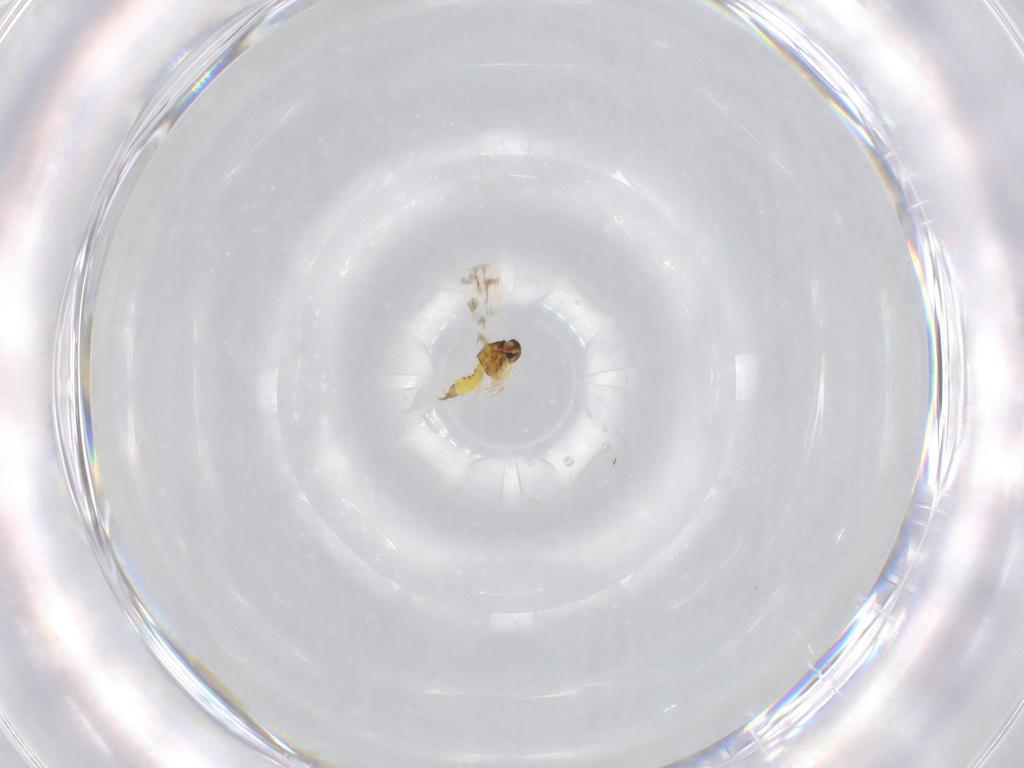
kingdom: Animalia
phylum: Arthropoda
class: Insecta
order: Hemiptera
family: Aleyrodidae
